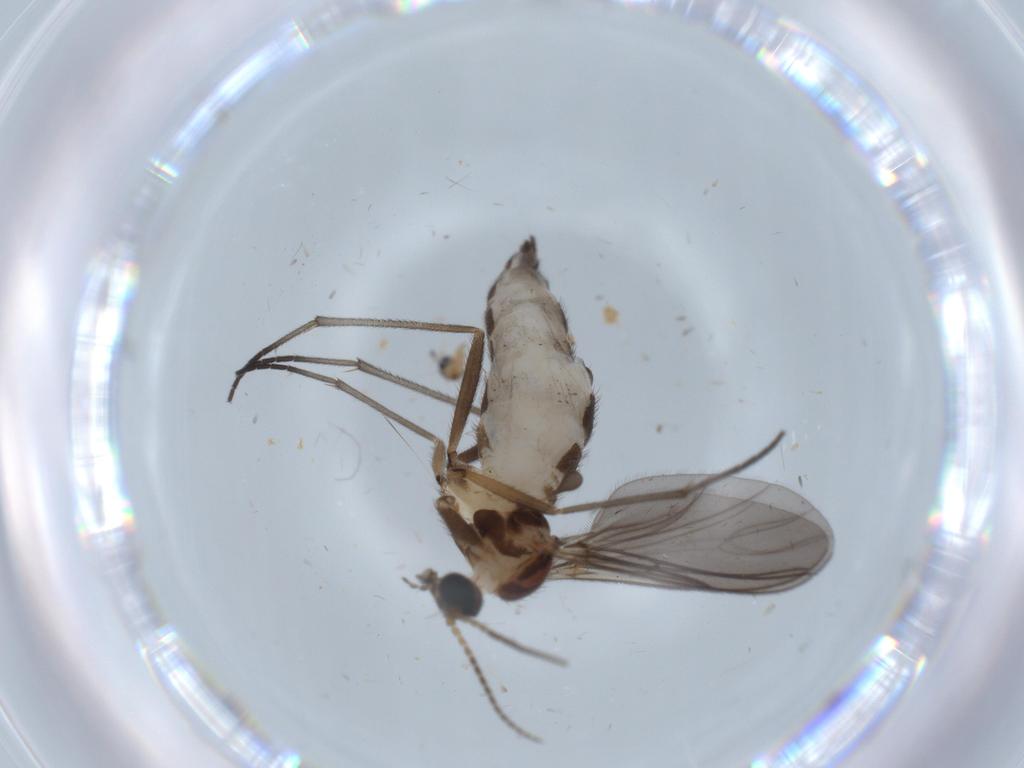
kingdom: Animalia
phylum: Arthropoda
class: Insecta
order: Diptera
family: Sciaridae
